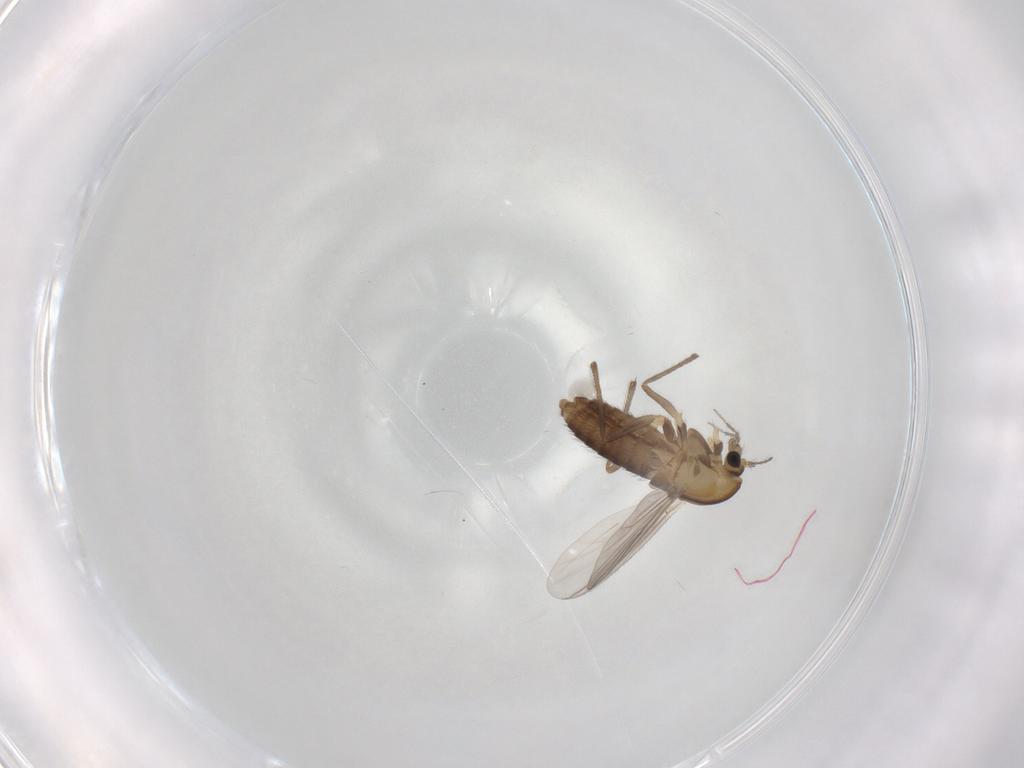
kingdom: Animalia
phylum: Arthropoda
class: Insecta
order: Diptera
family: Chironomidae
